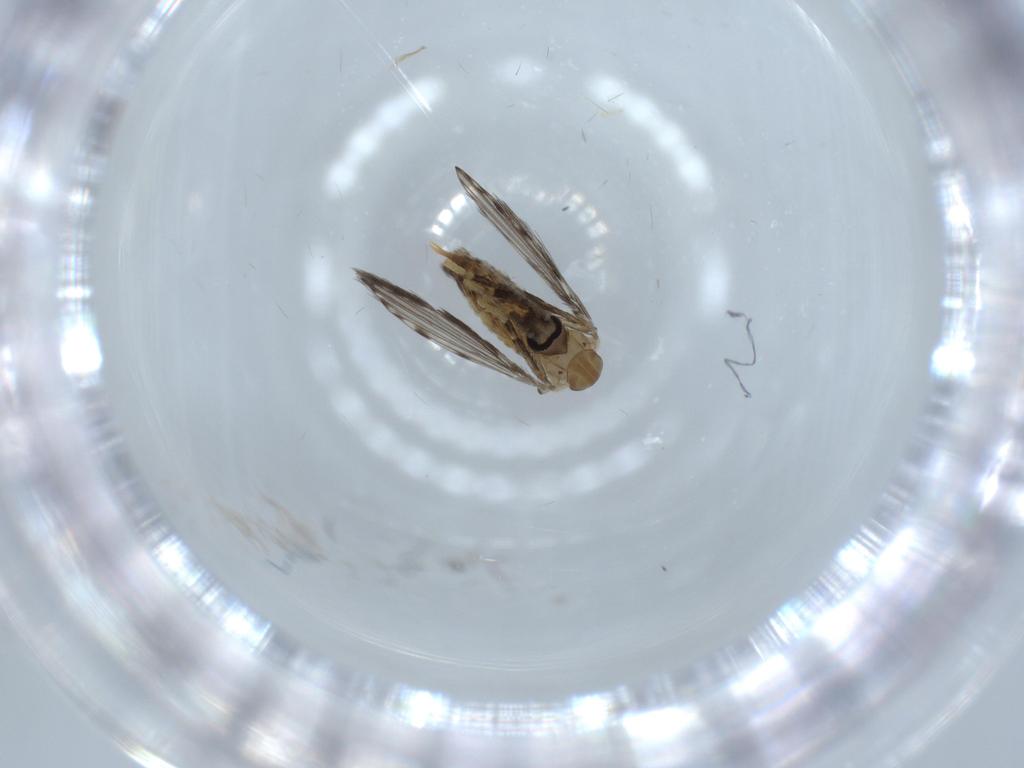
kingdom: Animalia
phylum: Arthropoda
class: Insecta
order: Diptera
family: Psychodidae
